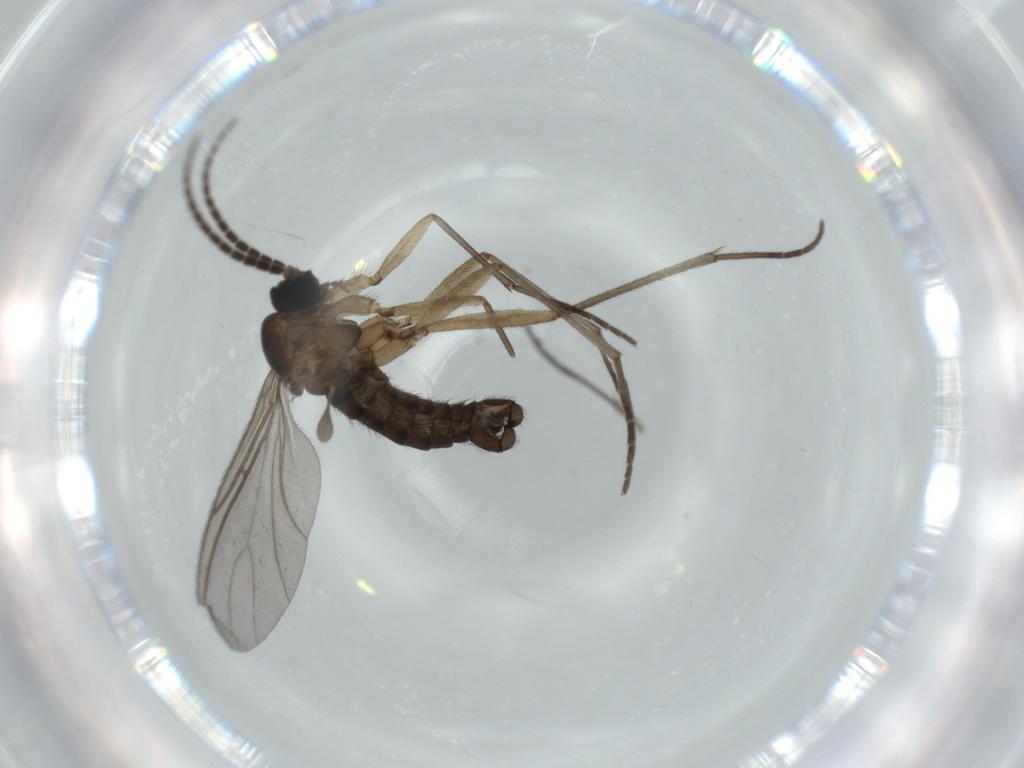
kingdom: Animalia
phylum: Arthropoda
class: Insecta
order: Diptera
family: Sciaridae
